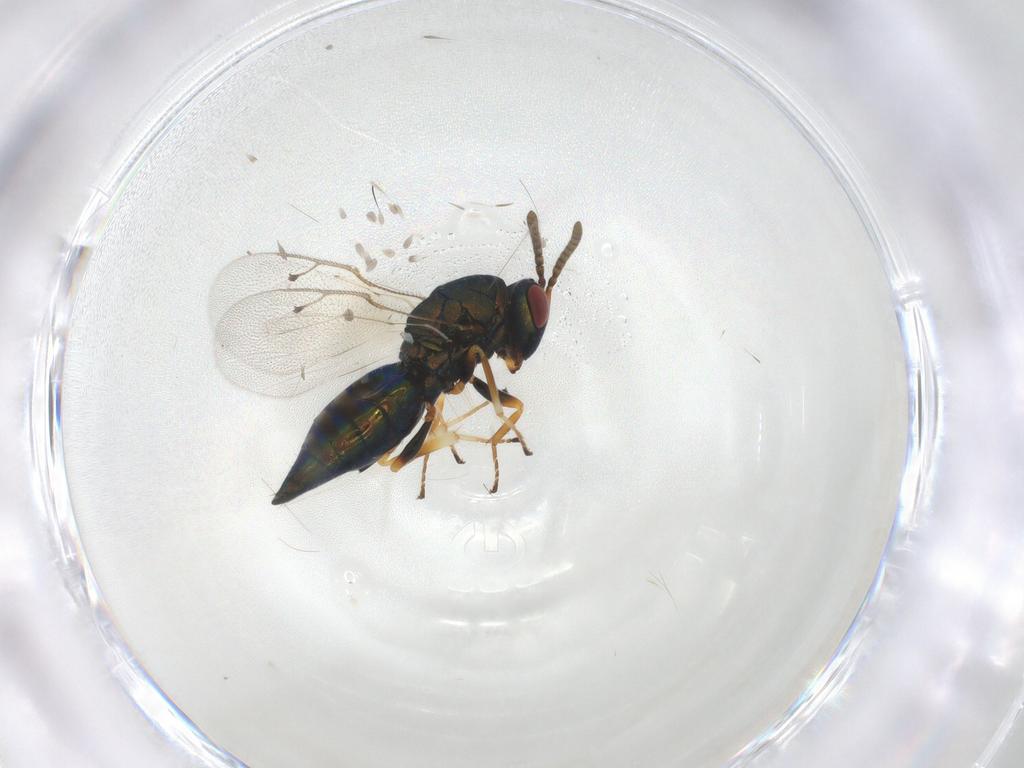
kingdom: Animalia
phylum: Arthropoda
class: Insecta
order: Hymenoptera
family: Pteromalidae
